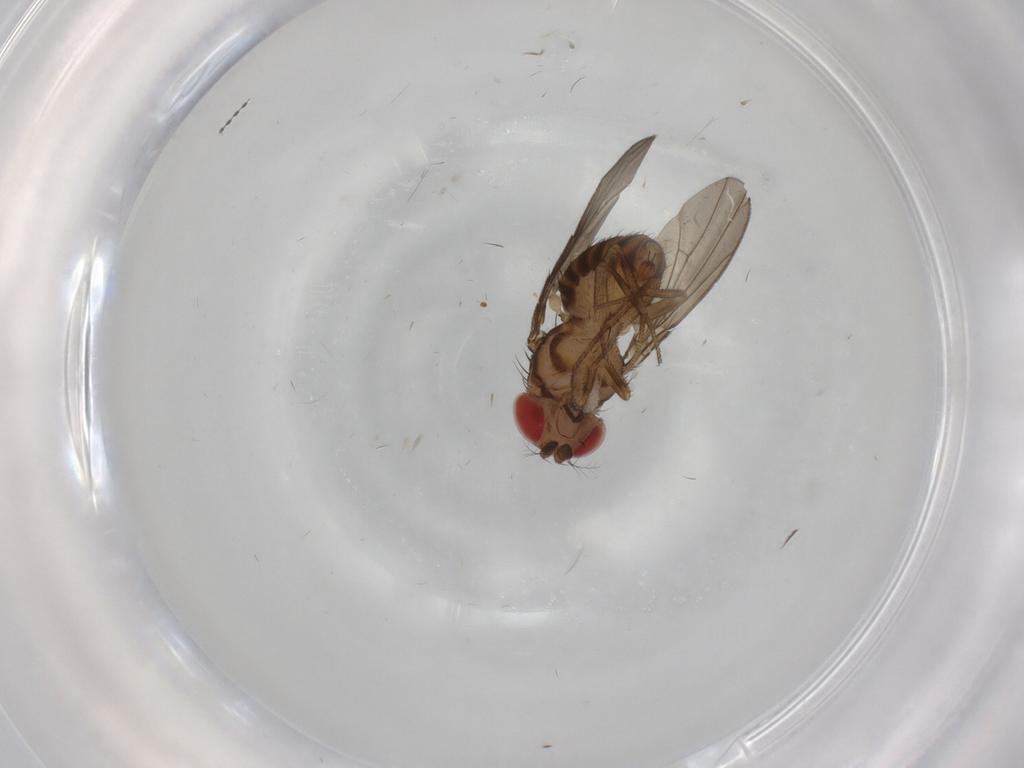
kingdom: Animalia
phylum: Arthropoda
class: Insecta
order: Diptera
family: Drosophilidae
